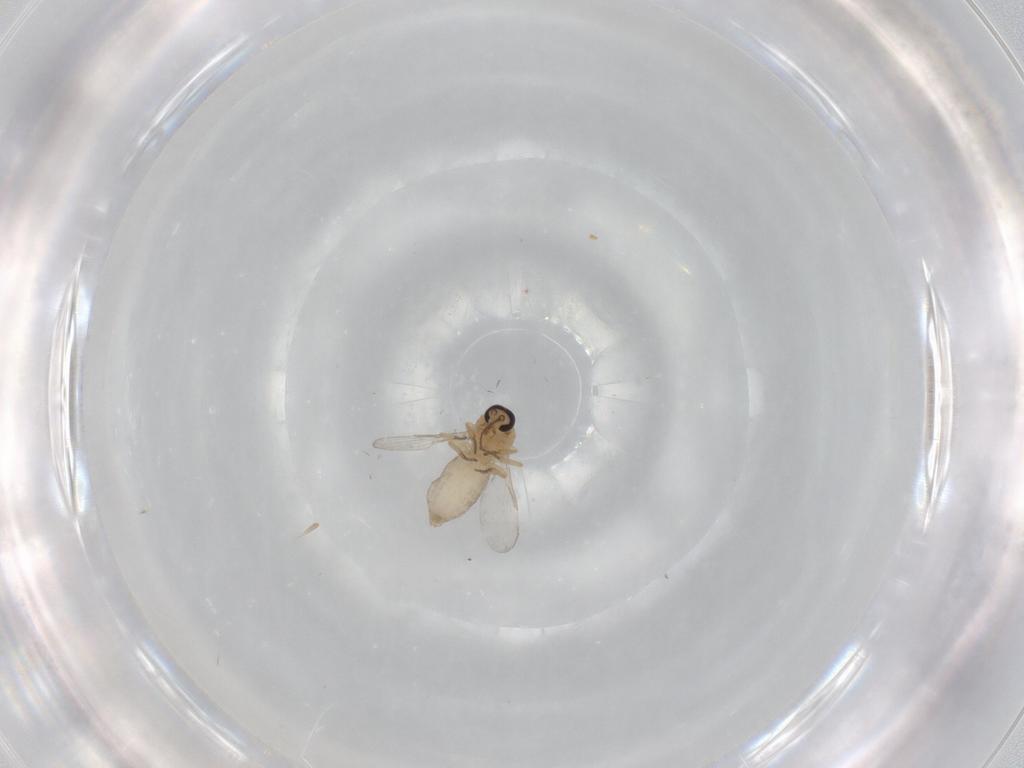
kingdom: Animalia
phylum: Arthropoda
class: Insecta
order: Diptera
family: Ceratopogonidae
